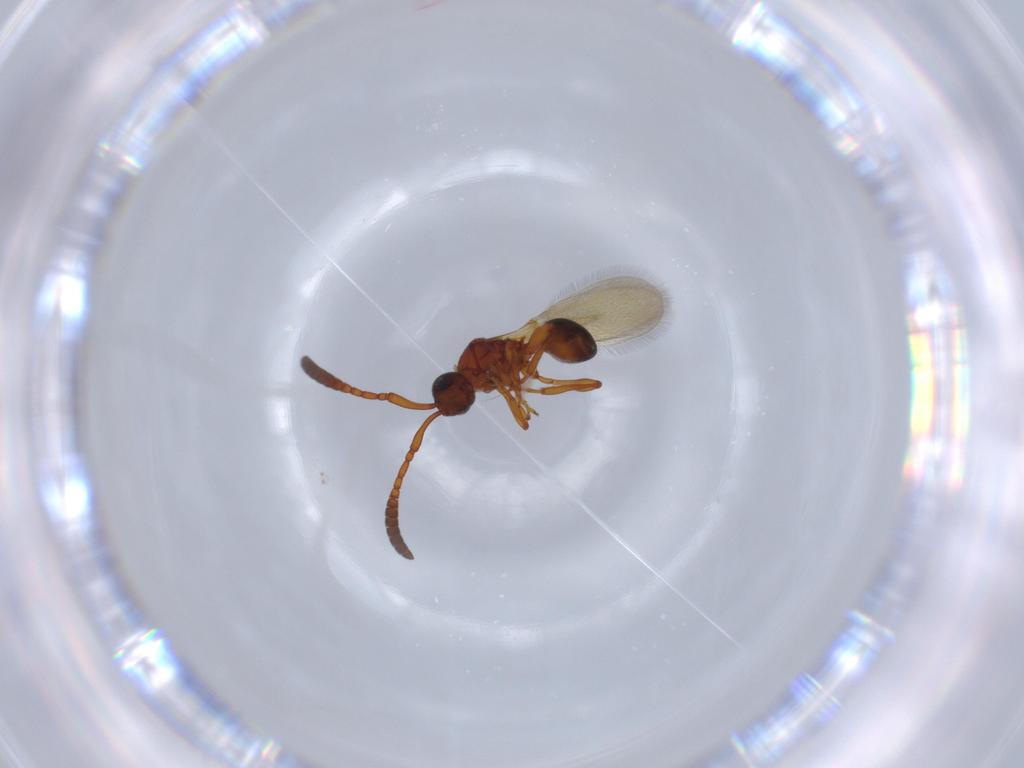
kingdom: Animalia
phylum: Arthropoda
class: Insecta
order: Hymenoptera
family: Diapriidae
